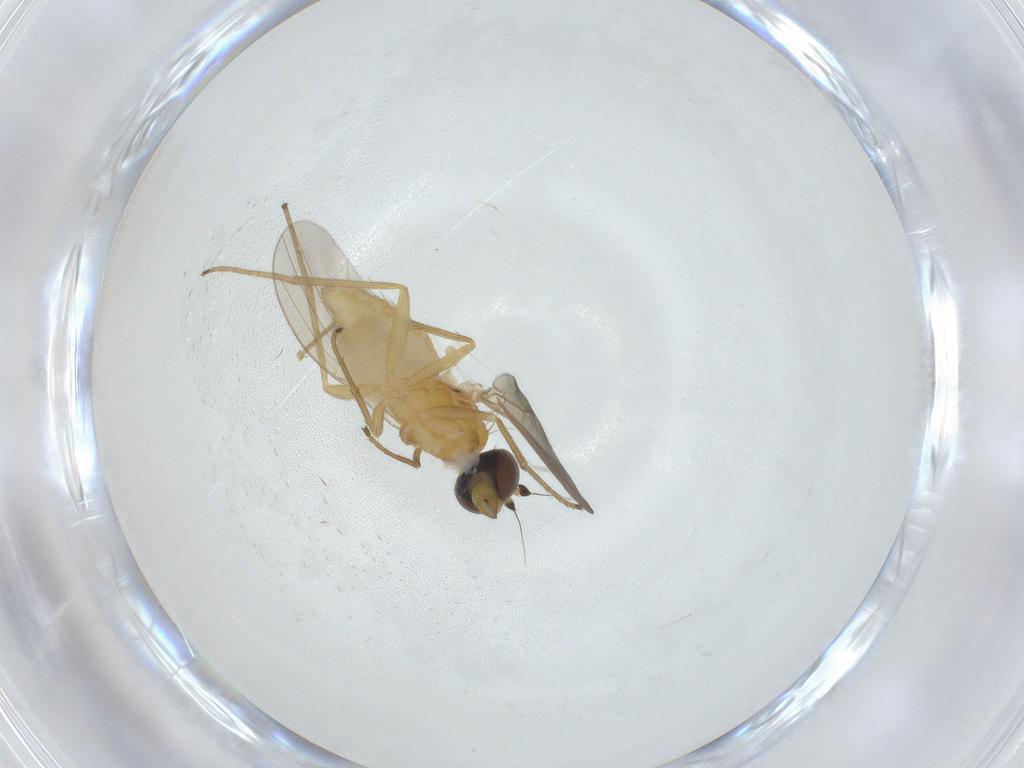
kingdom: Animalia
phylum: Arthropoda
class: Insecta
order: Diptera
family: Dolichopodidae
